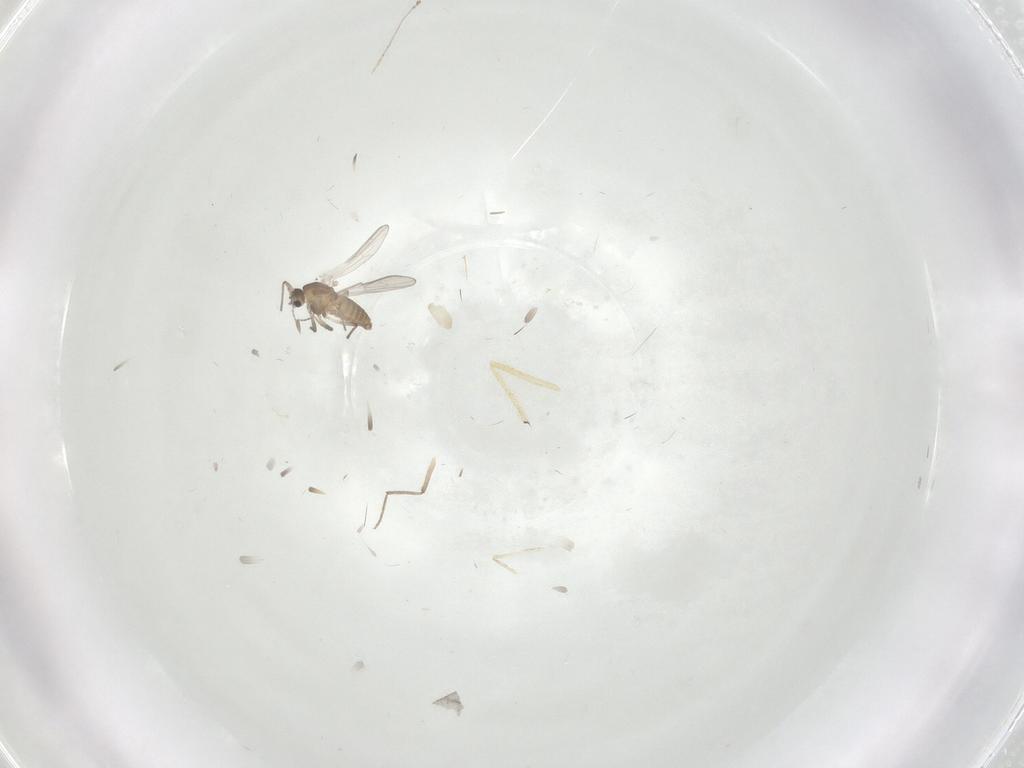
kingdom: Animalia
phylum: Arthropoda
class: Insecta
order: Diptera
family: Chironomidae
